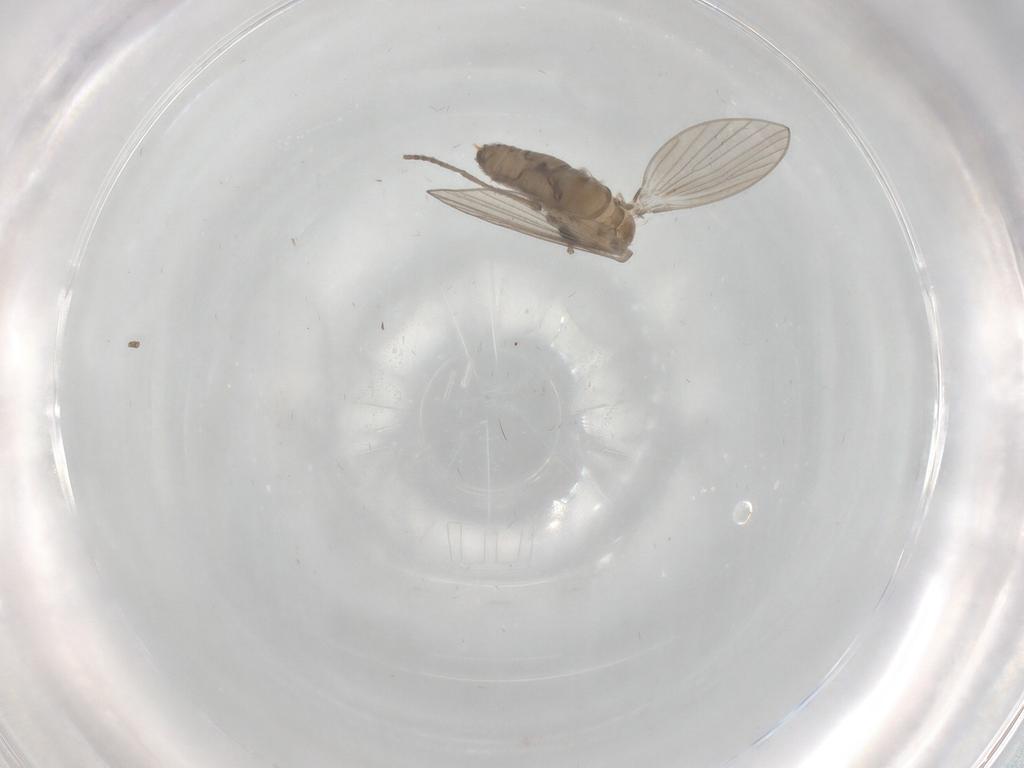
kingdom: Animalia
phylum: Arthropoda
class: Insecta
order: Diptera
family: Psychodidae
